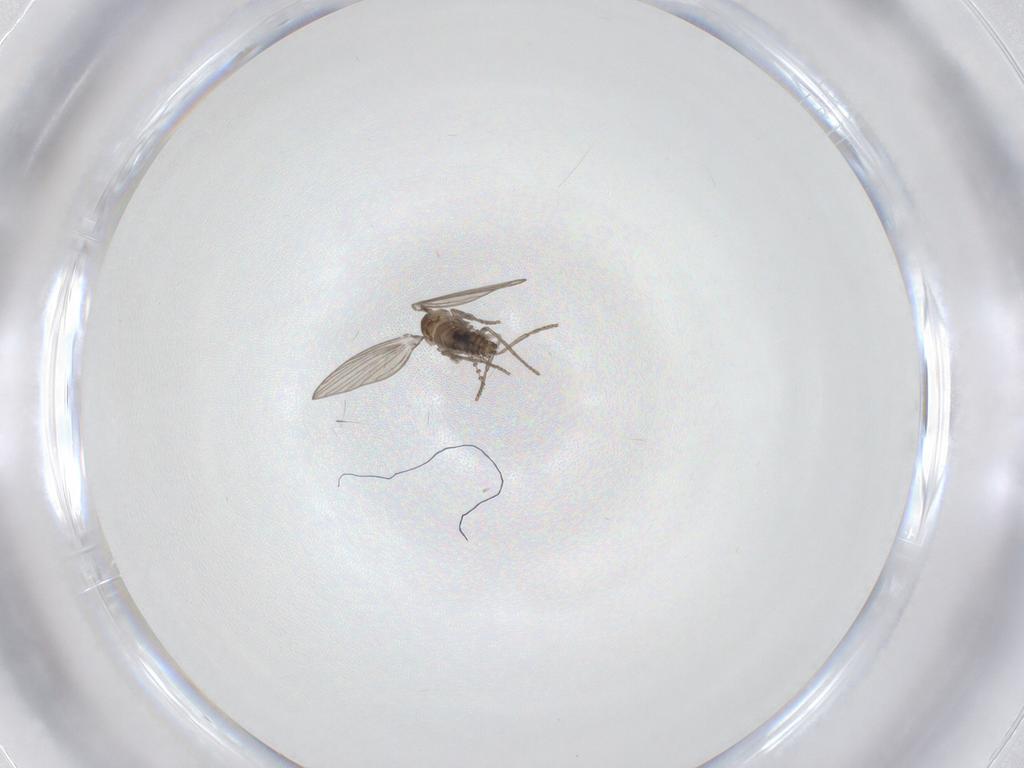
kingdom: Animalia
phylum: Arthropoda
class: Insecta
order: Diptera
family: Psychodidae
